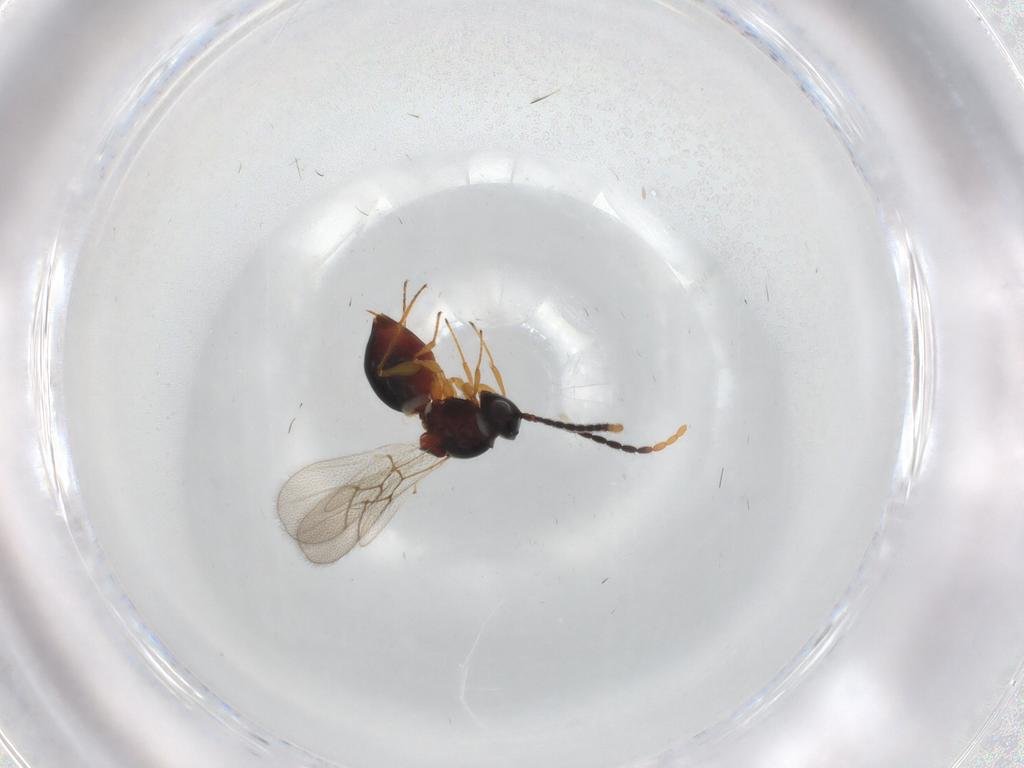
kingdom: Animalia
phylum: Arthropoda
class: Insecta
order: Hymenoptera
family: Figitidae
